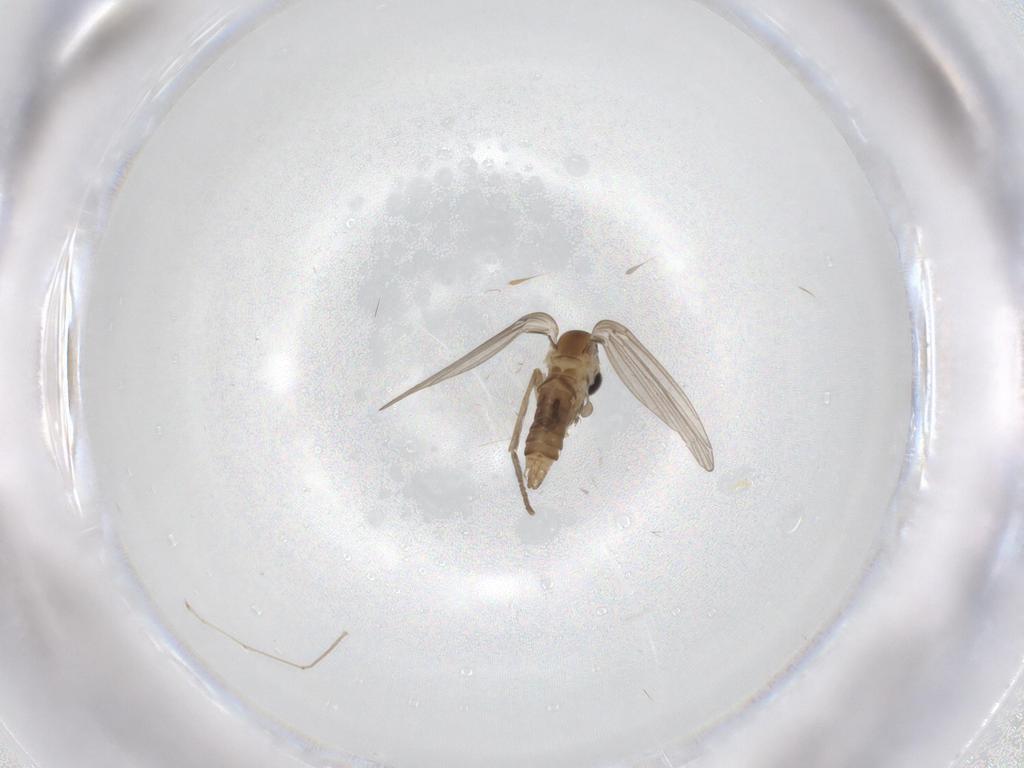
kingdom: Animalia
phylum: Arthropoda
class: Insecta
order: Diptera
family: Psychodidae
